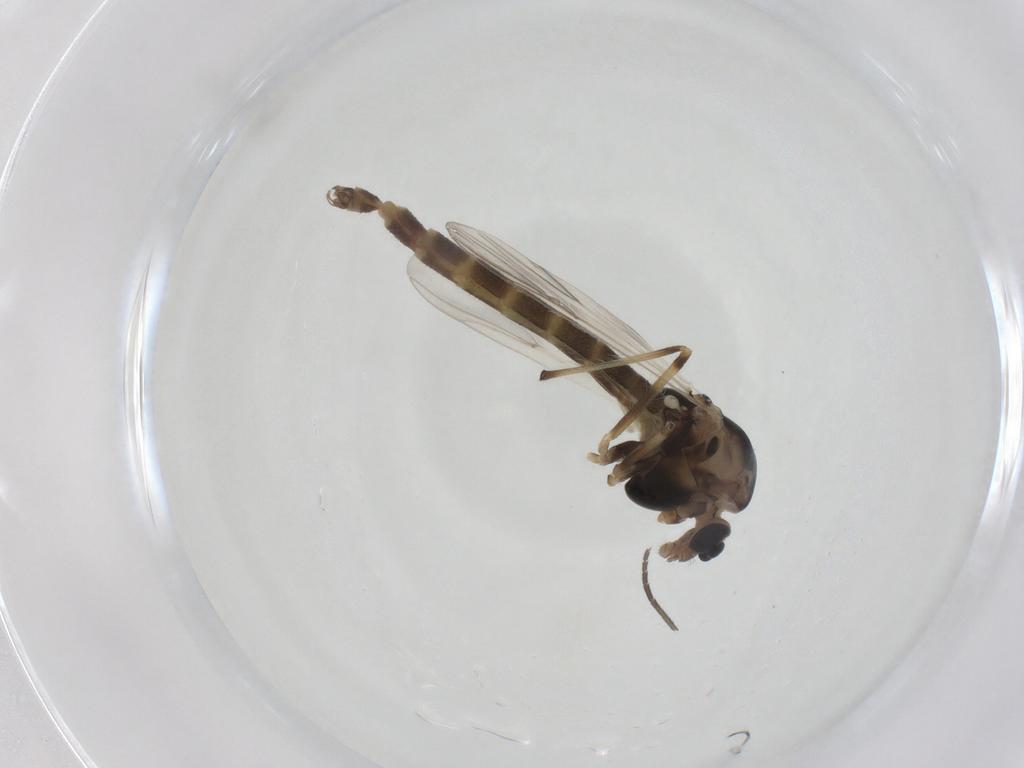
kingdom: Animalia
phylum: Arthropoda
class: Insecta
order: Diptera
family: Chironomidae
